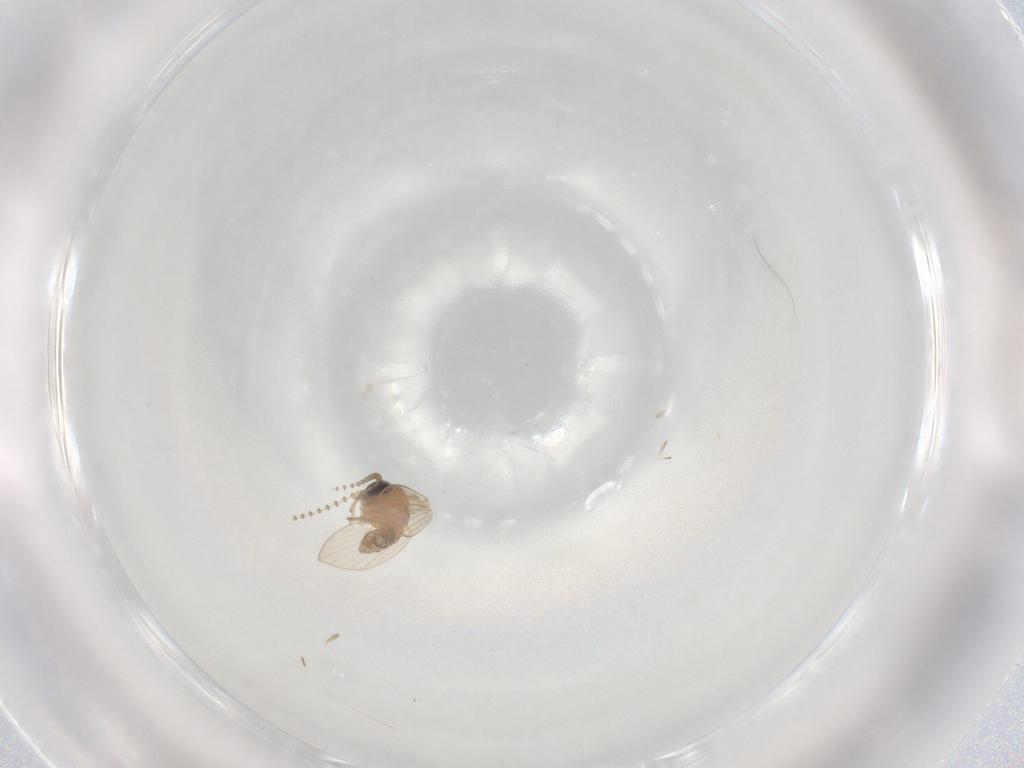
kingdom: Animalia
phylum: Arthropoda
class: Insecta
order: Diptera
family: Psychodidae
